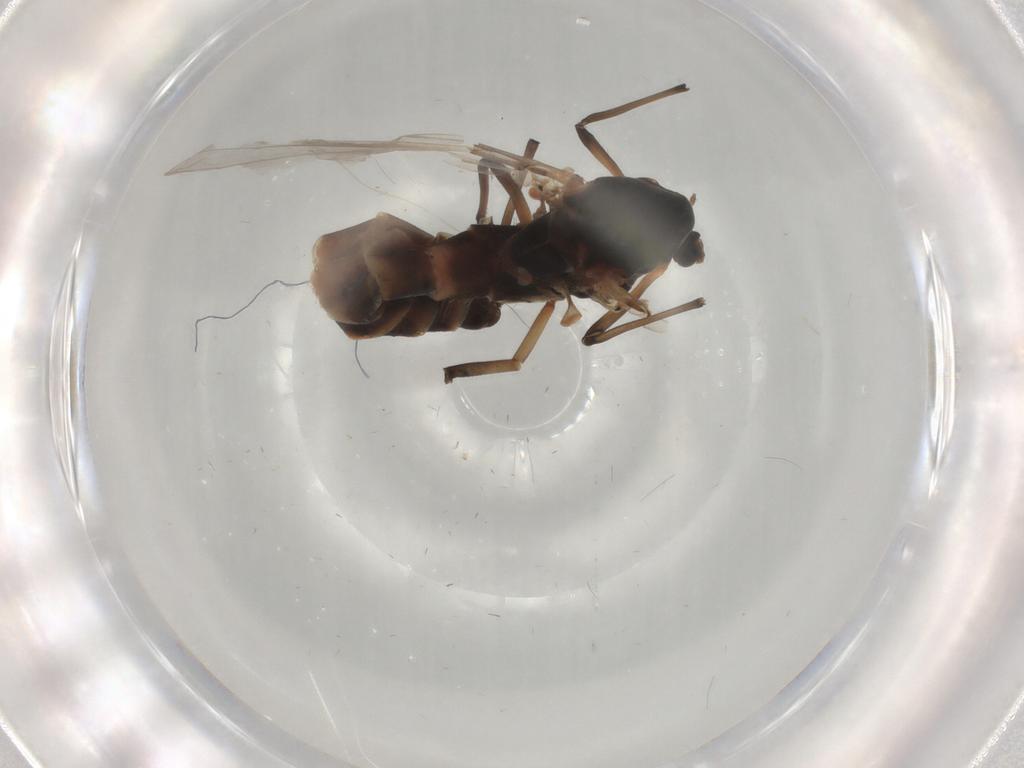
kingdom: Animalia
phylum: Arthropoda
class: Insecta
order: Diptera
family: Chironomidae
